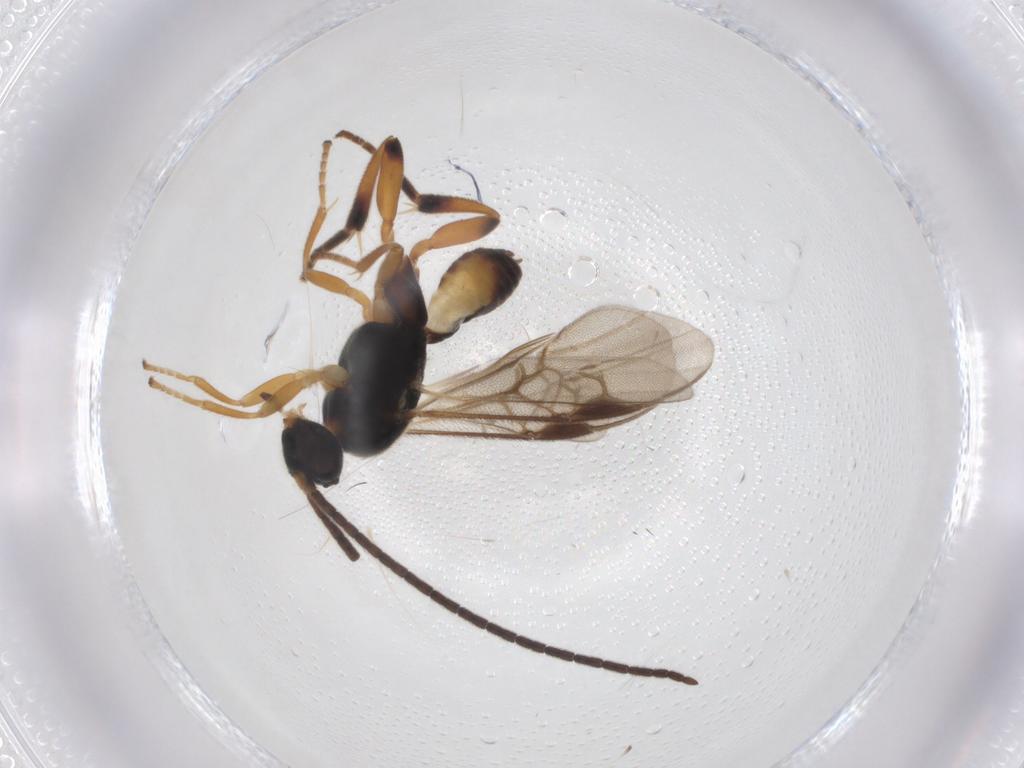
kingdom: Animalia
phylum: Arthropoda
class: Insecta
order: Hymenoptera
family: Braconidae
